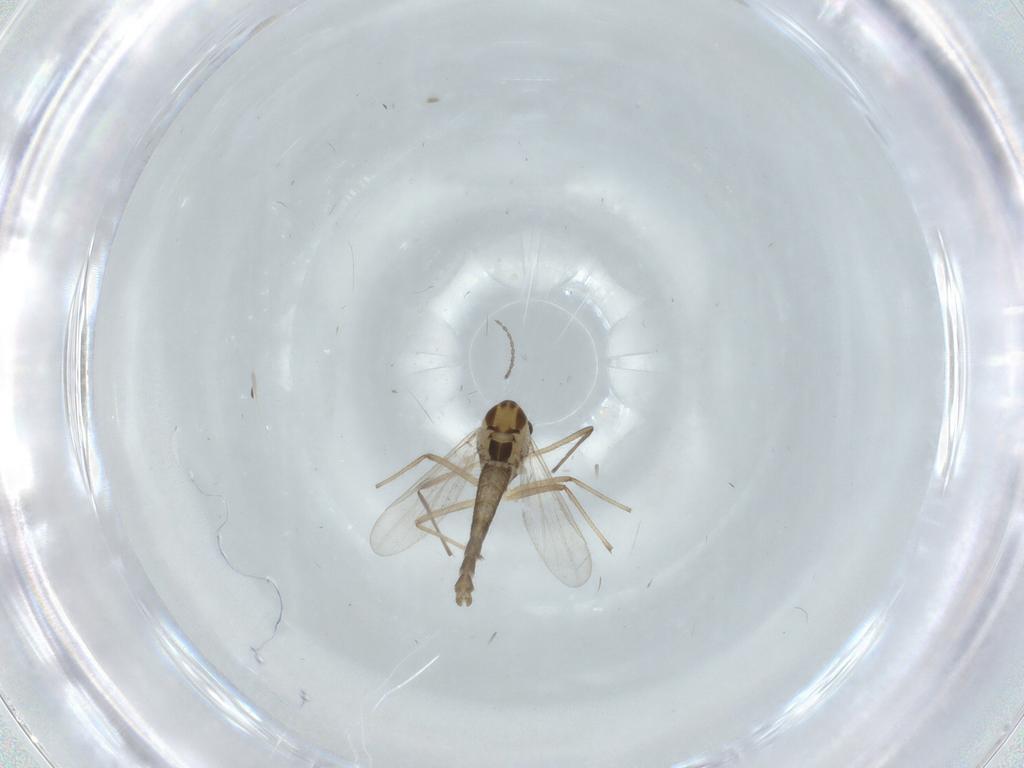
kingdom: Animalia
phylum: Arthropoda
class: Insecta
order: Diptera
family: Chironomidae
